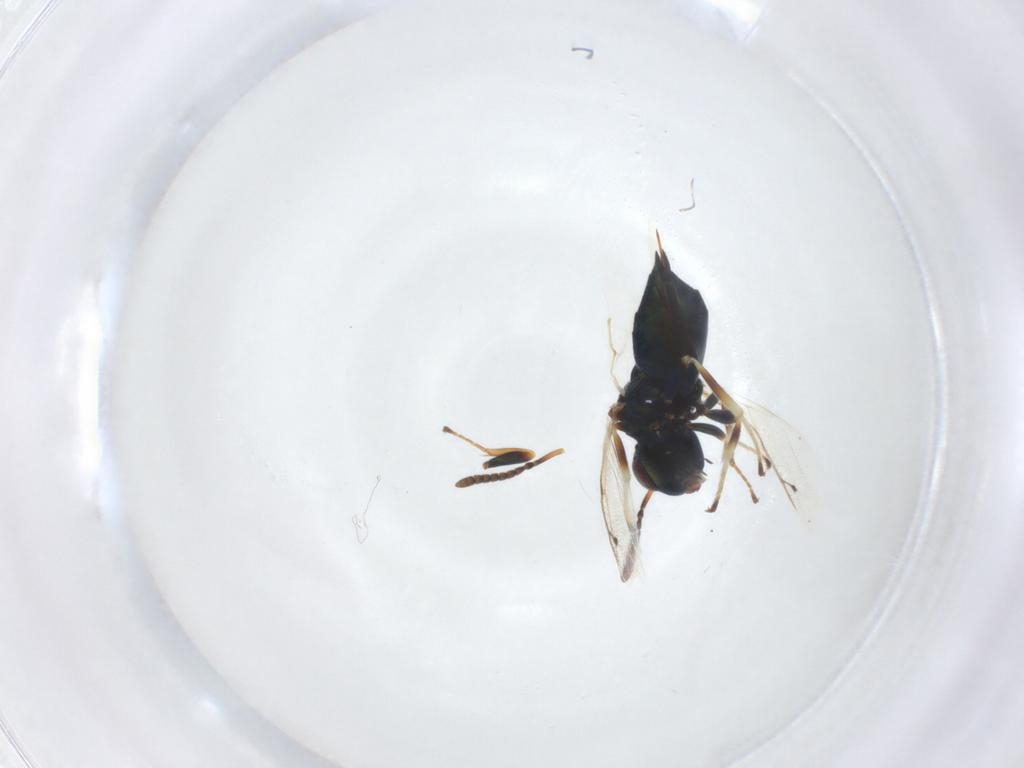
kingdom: Animalia
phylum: Arthropoda
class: Insecta
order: Hymenoptera
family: Pteromalidae
